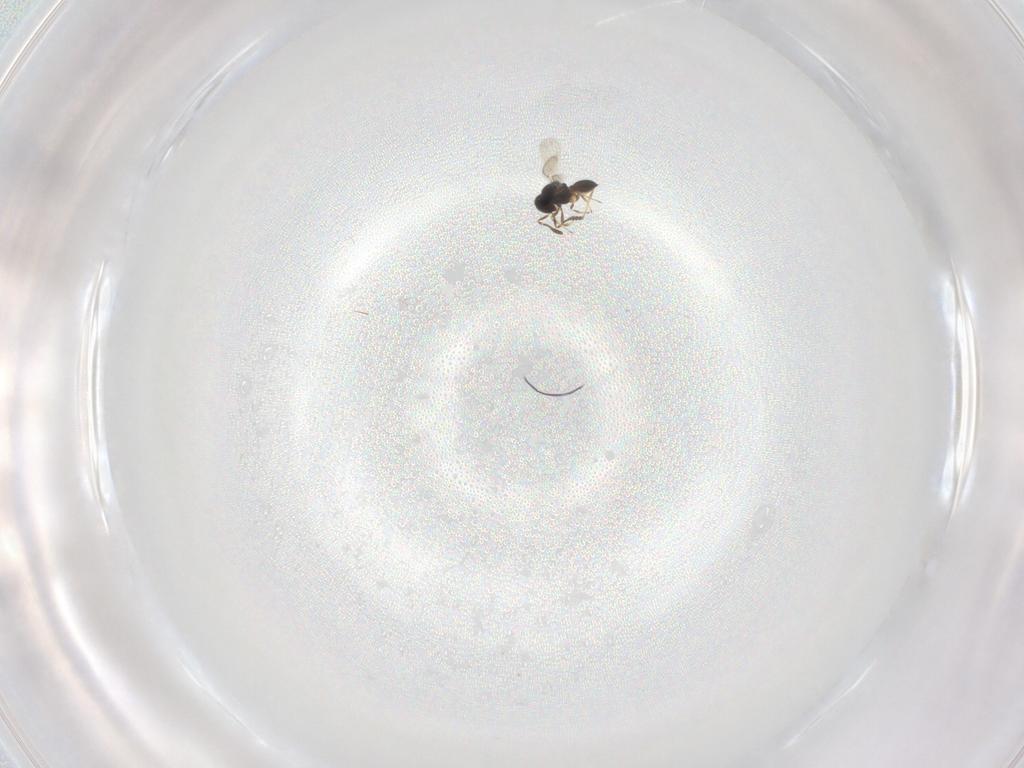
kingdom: Animalia
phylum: Arthropoda
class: Insecta
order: Hymenoptera
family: Scelionidae
